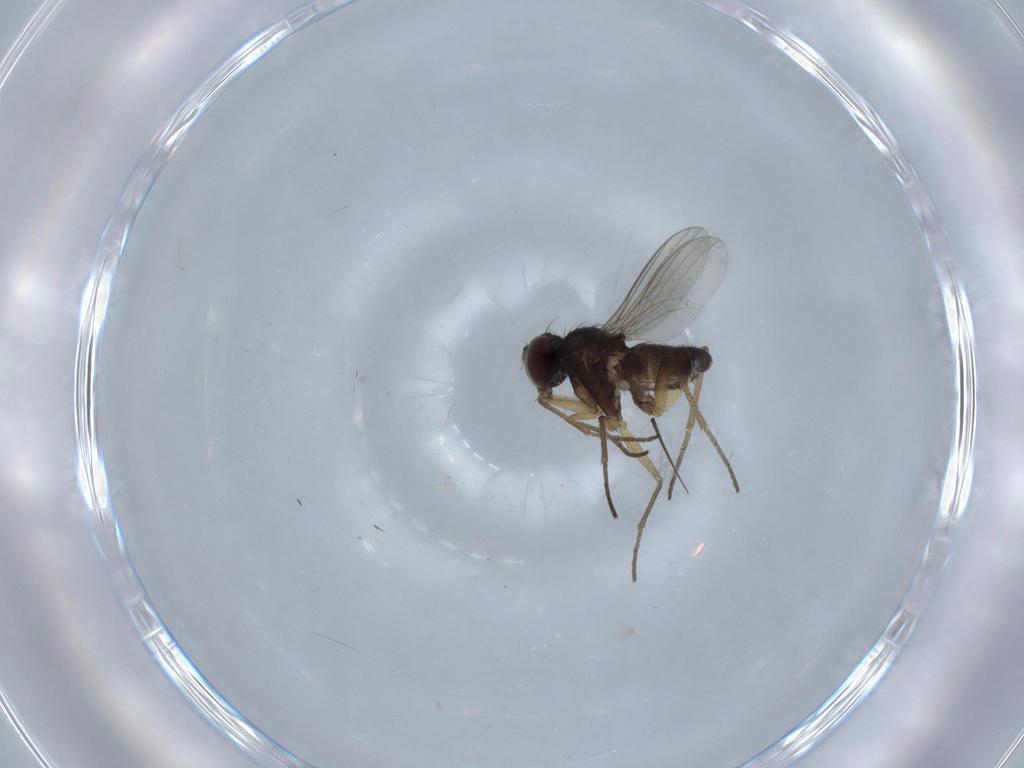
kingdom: Animalia
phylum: Arthropoda
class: Insecta
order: Diptera
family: Dolichopodidae
